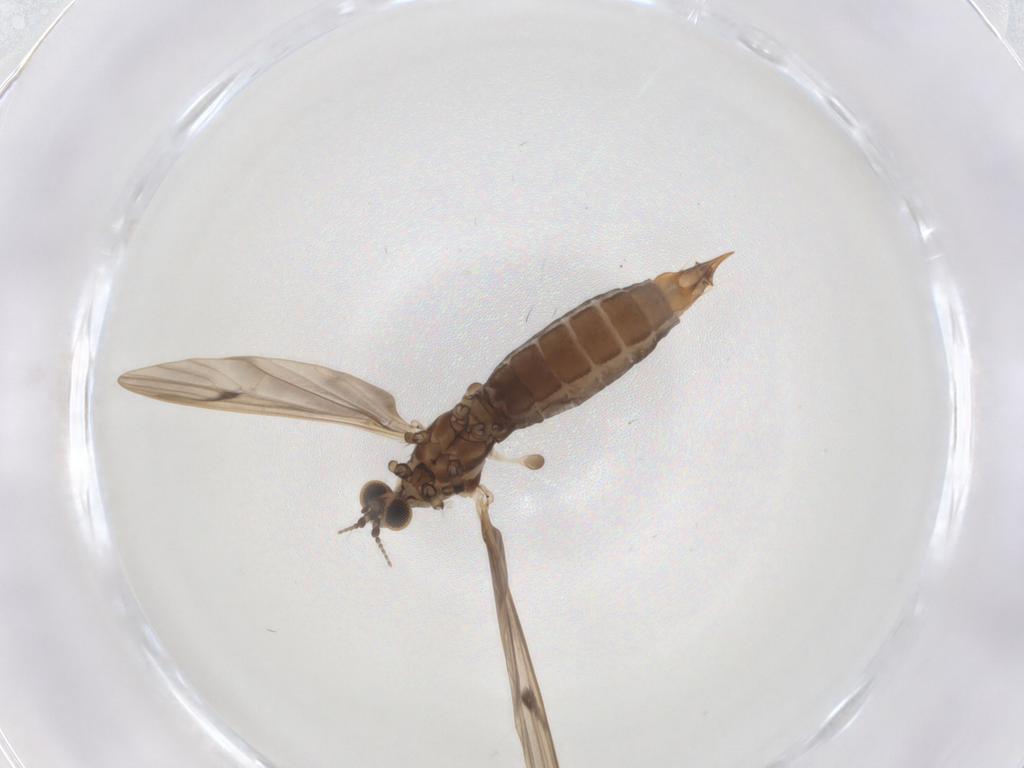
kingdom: Animalia
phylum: Arthropoda
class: Insecta
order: Diptera
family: Limoniidae
